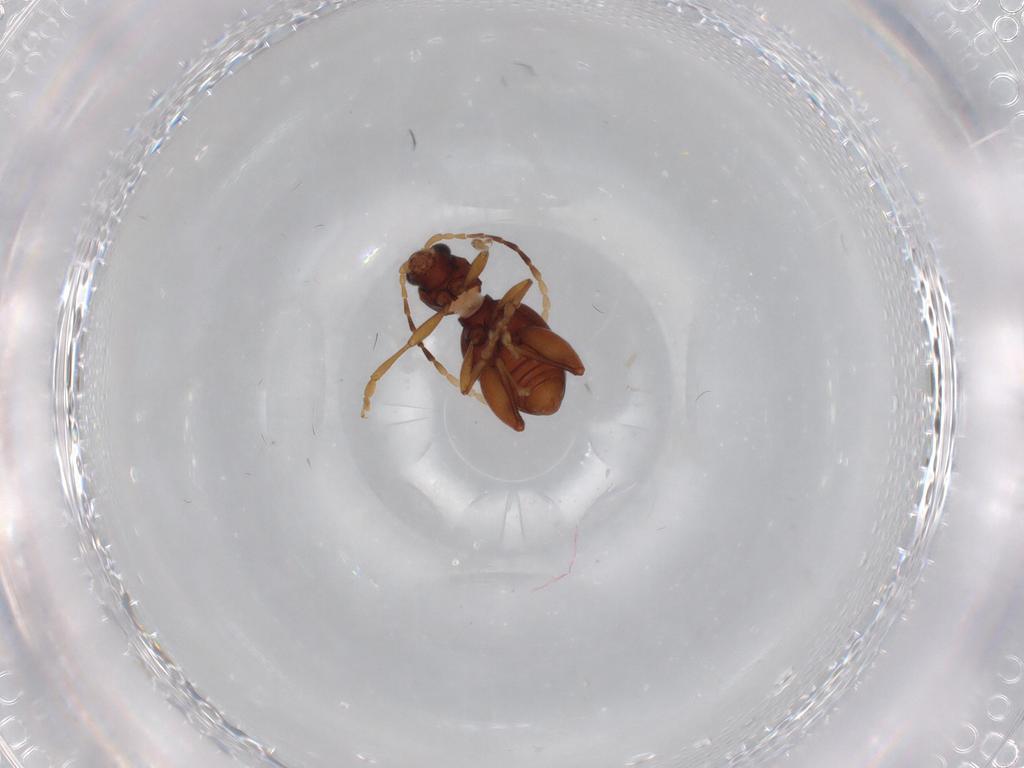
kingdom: Animalia
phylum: Arthropoda
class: Insecta
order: Coleoptera
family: Chrysomelidae
